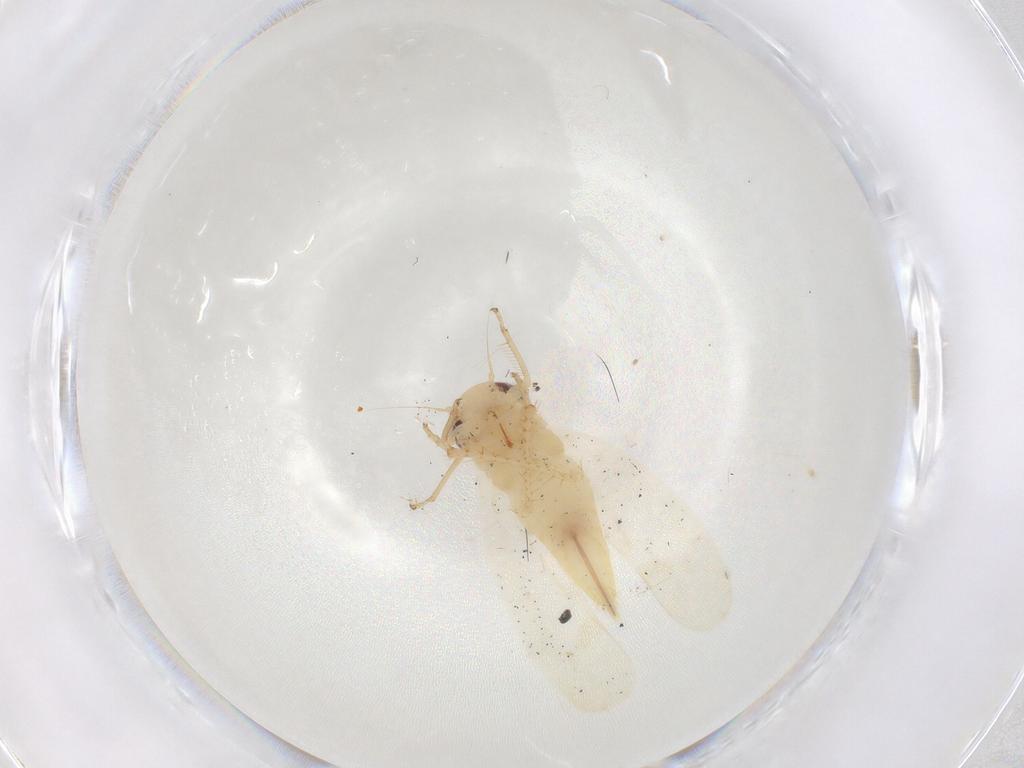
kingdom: Animalia
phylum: Arthropoda
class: Insecta
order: Hemiptera
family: Cicadellidae
